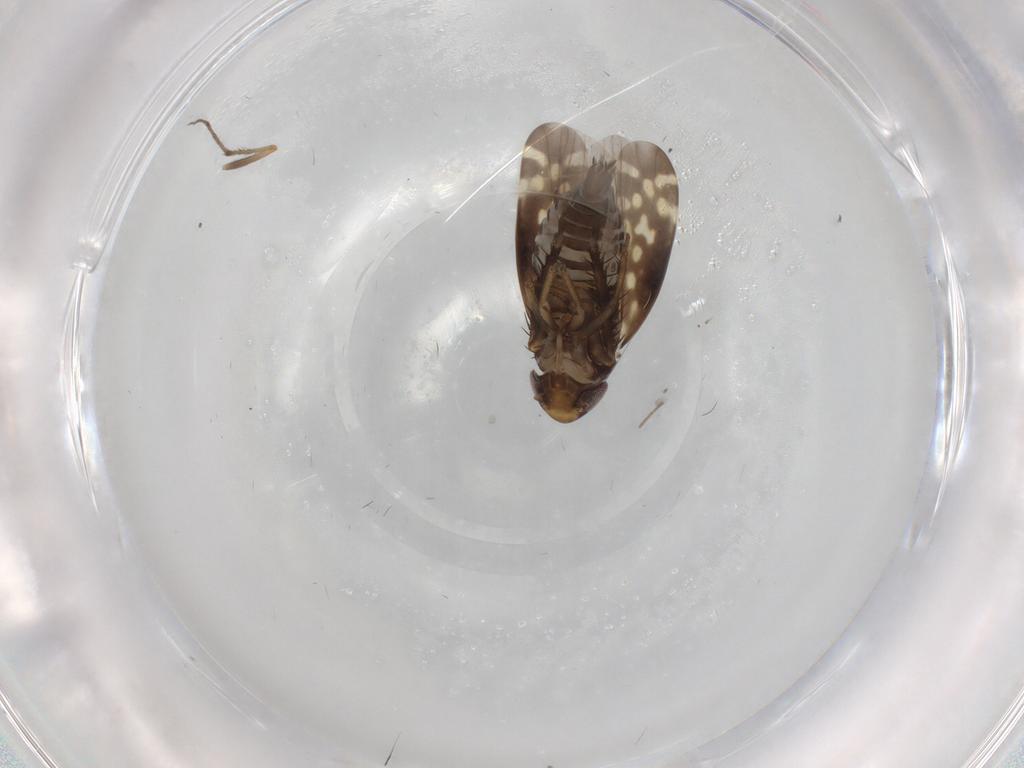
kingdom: Animalia
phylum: Arthropoda
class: Insecta
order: Hemiptera
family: Cicadellidae
